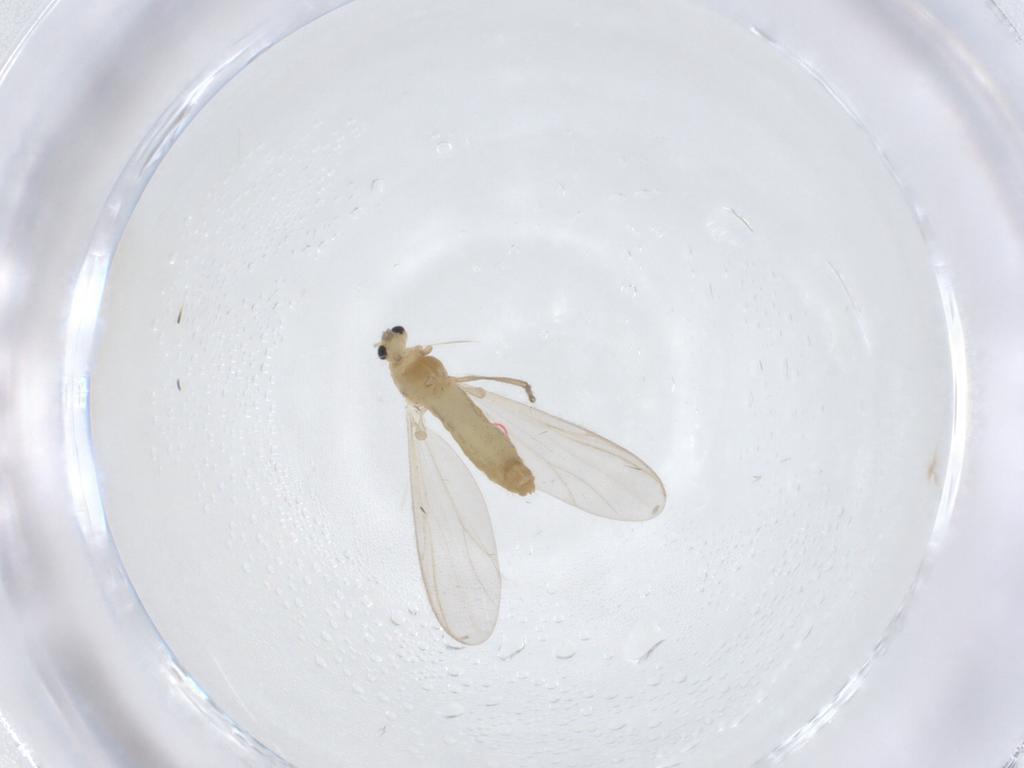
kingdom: Animalia
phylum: Arthropoda
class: Insecta
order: Diptera
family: Chironomidae
